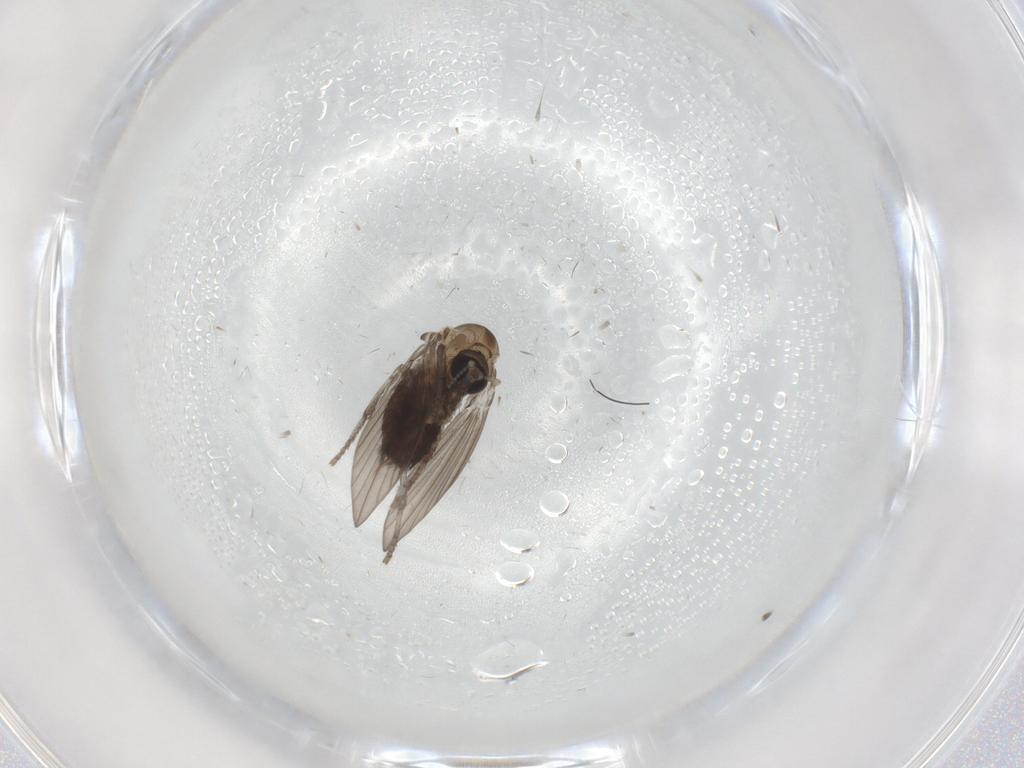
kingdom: Animalia
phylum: Arthropoda
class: Insecta
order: Diptera
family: Psychodidae
